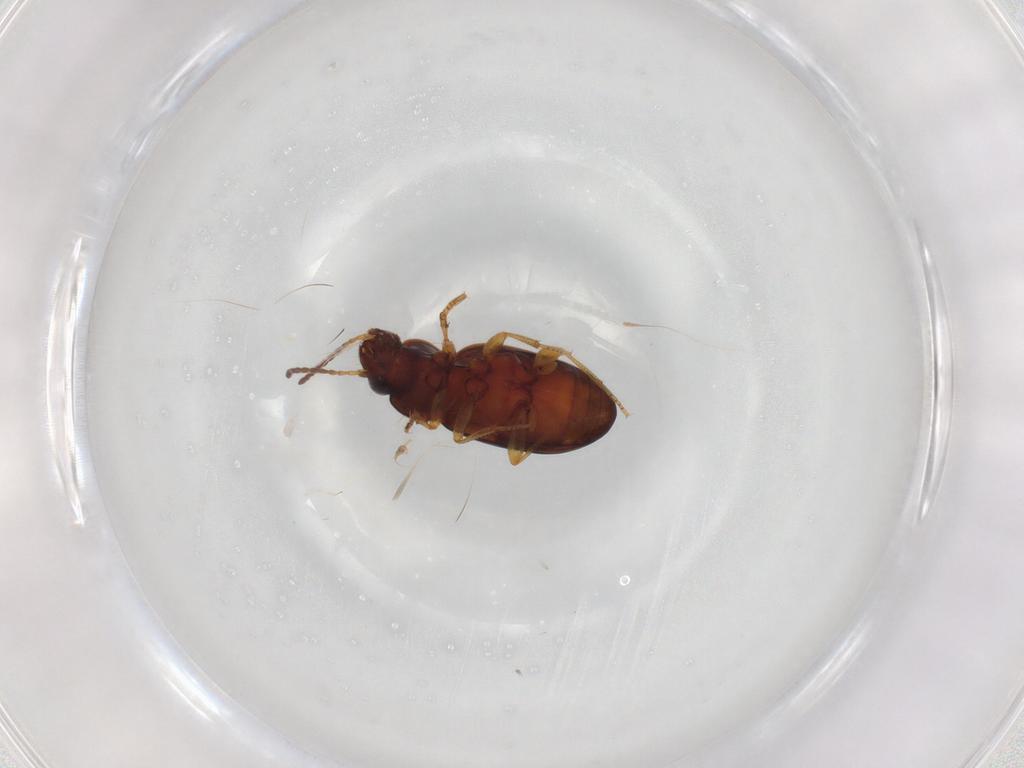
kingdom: Animalia
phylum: Arthropoda
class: Insecta
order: Coleoptera
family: Carabidae
